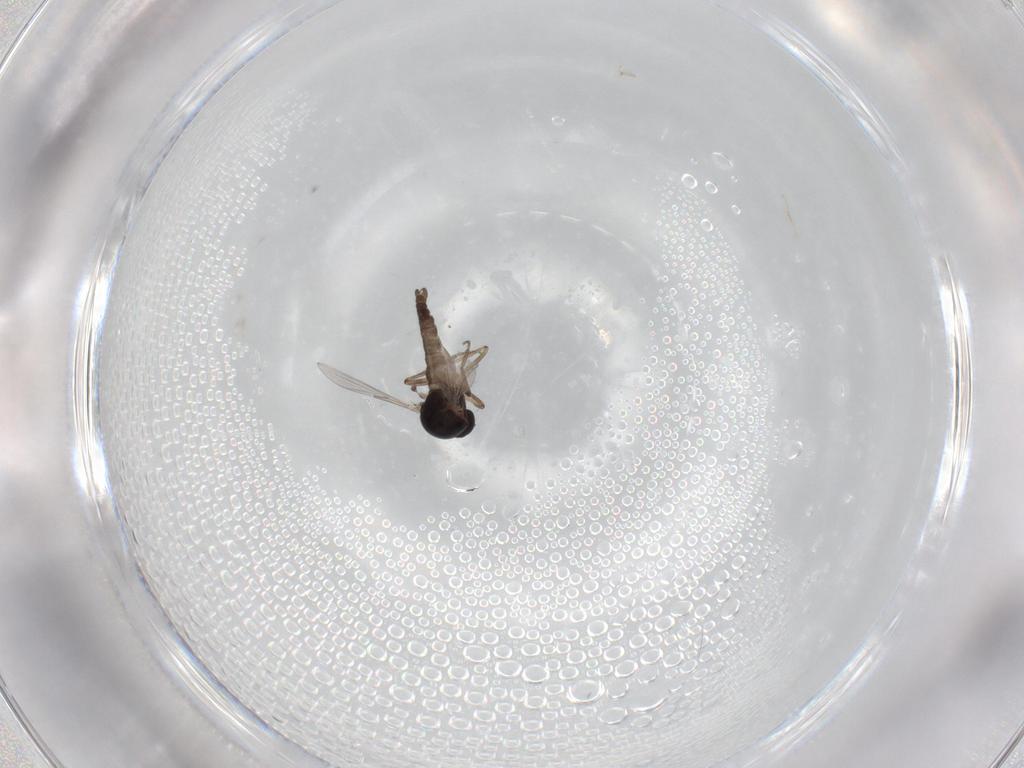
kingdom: Animalia
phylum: Arthropoda
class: Insecta
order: Diptera
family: Ceratopogonidae
